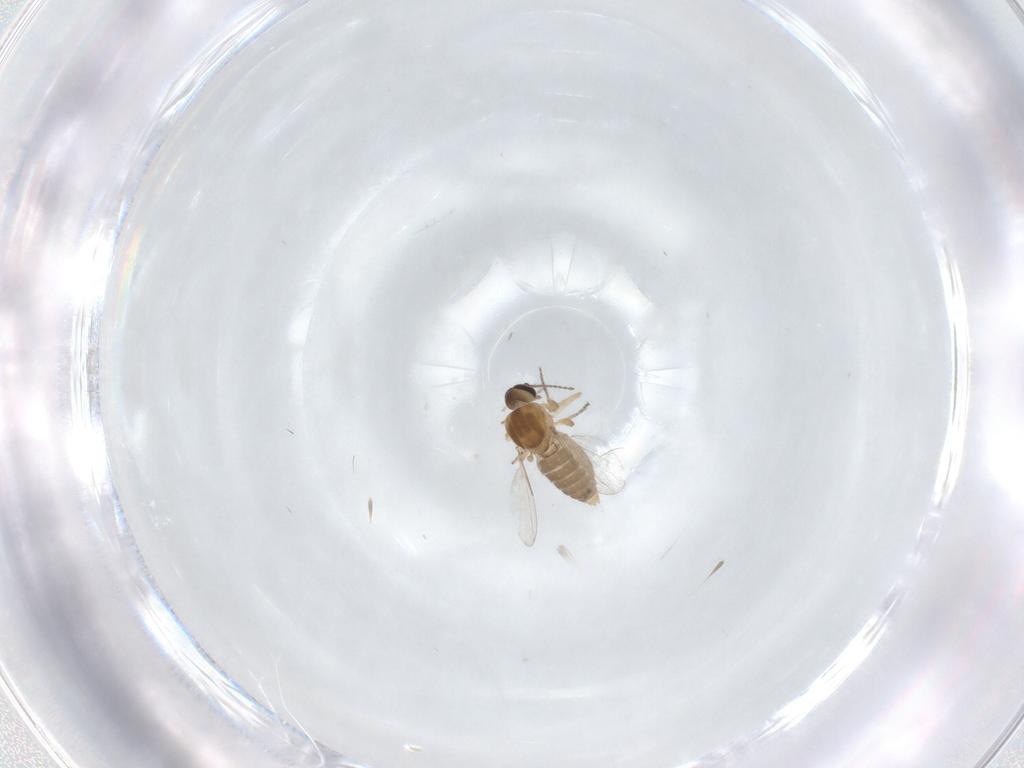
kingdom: Animalia
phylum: Arthropoda
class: Insecta
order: Diptera
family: Ceratopogonidae
